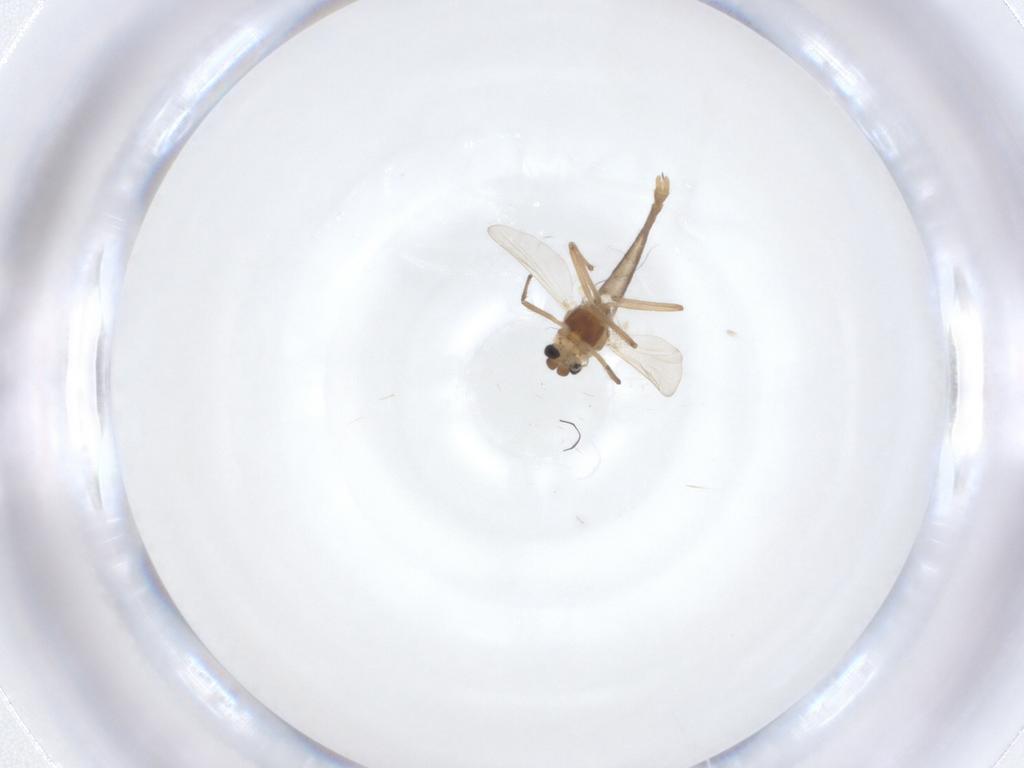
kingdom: Animalia
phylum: Arthropoda
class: Insecta
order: Diptera
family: Chironomidae
